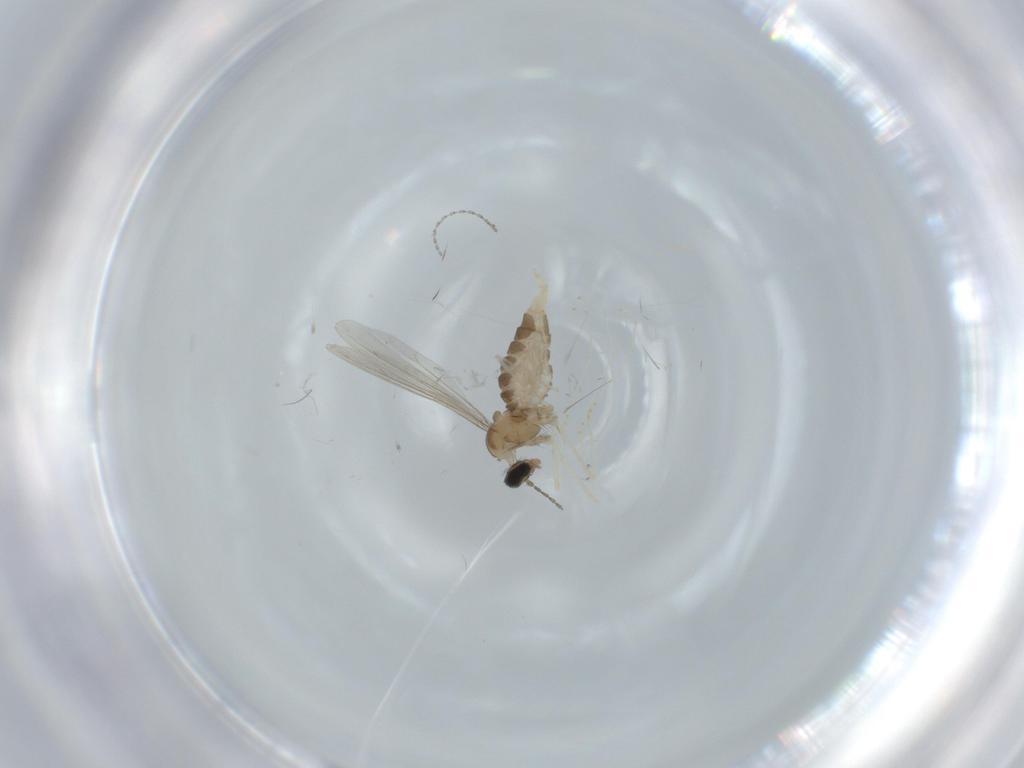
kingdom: Animalia
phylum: Arthropoda
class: Insecta
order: Diptera
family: Cecidomyiidae
